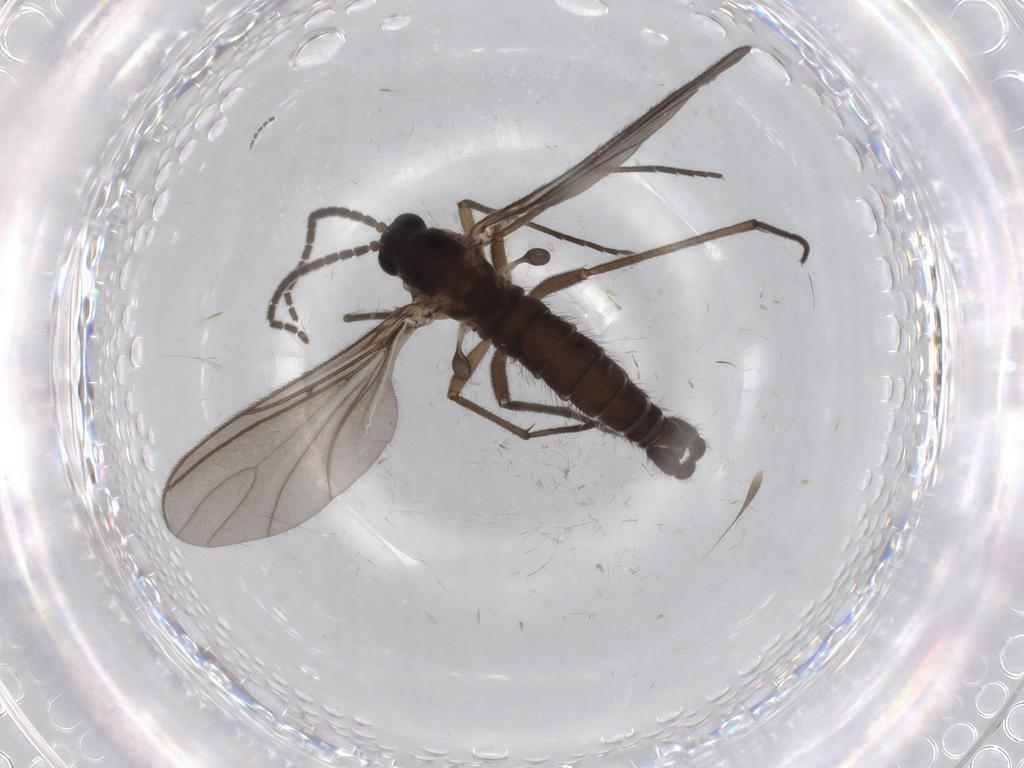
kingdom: Animalia
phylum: Arthropoda
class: Insecta
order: Diptera
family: Sciaridae
